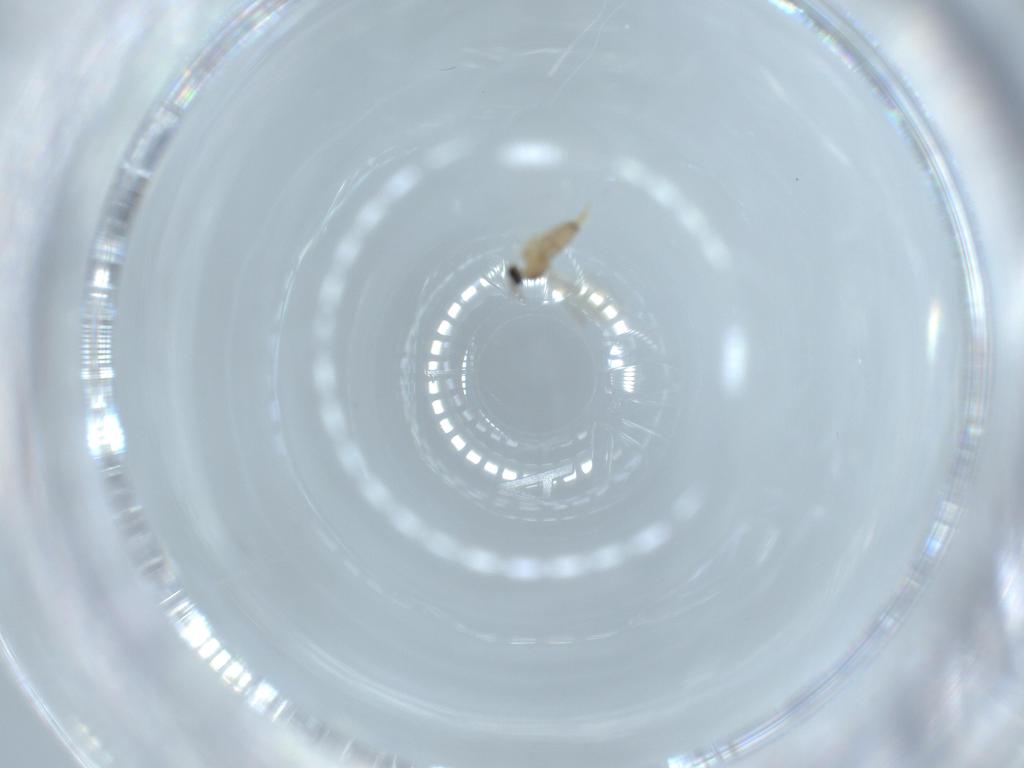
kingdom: Animalia
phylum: Arthropoda
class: Insecta
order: Diptera
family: Cecidomyiidae
